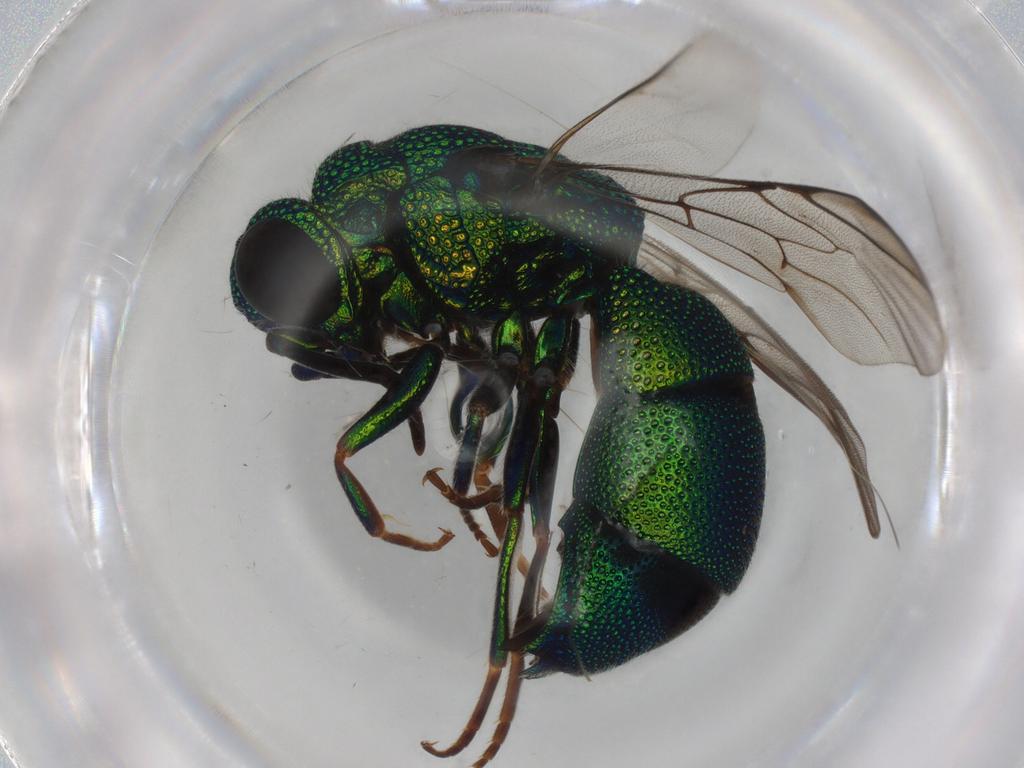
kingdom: Animalia
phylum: Arthropoda
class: Insecta
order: Hymenoptera
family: Chrysididae
